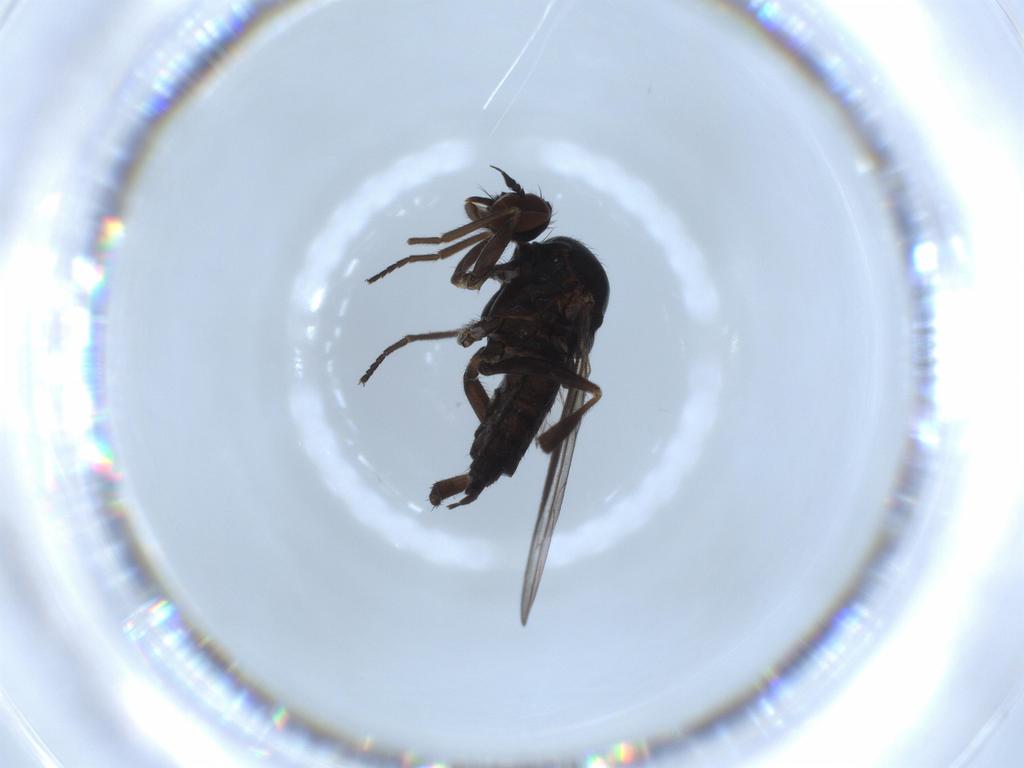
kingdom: Animalia
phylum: Arthropoda
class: Insecta
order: Diptera
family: Empididae
